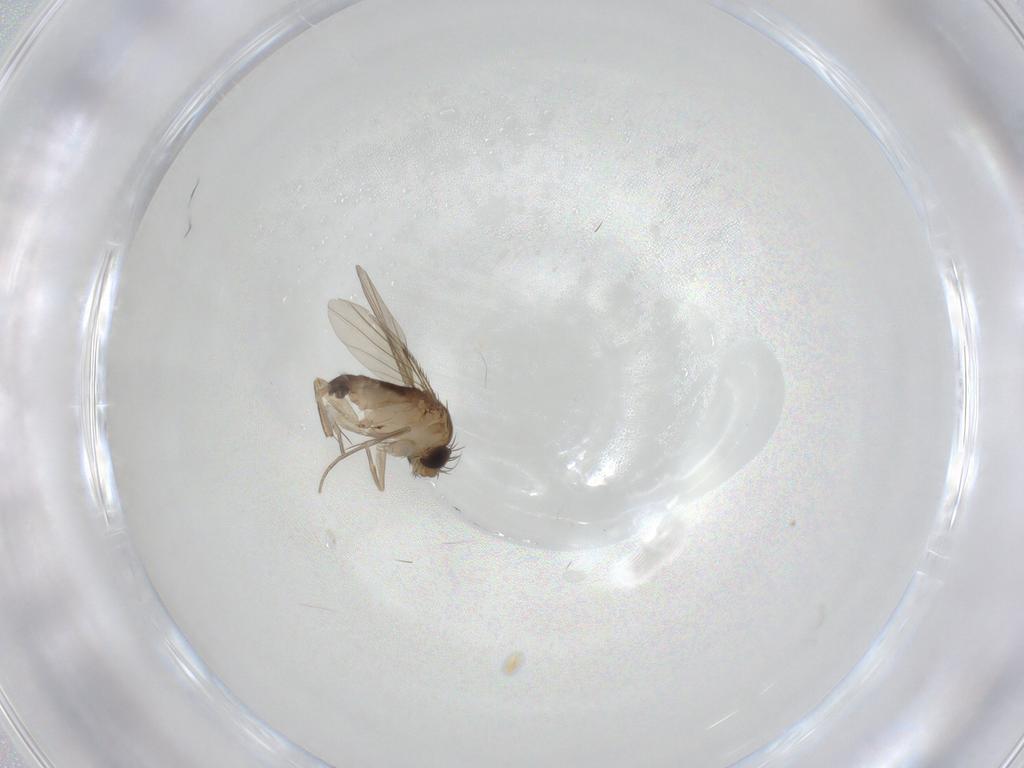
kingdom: Animalia
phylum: Arthropoda
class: Insecta
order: Diptera
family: Phoridae
